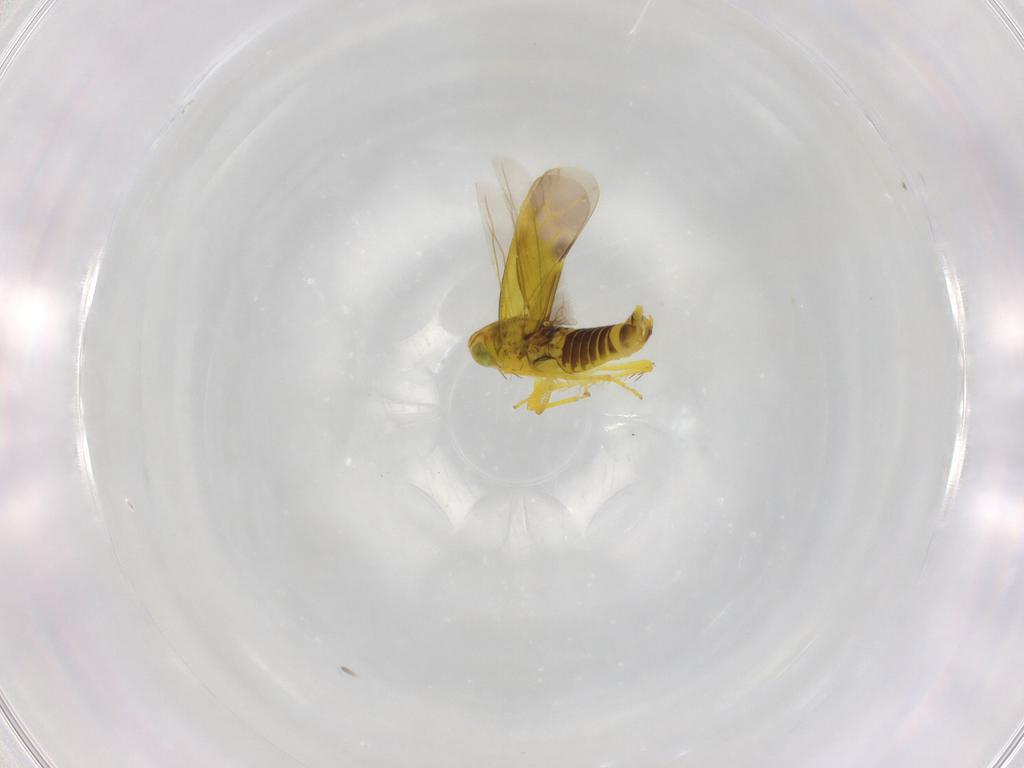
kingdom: Animalia
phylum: Arthropoda
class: Insecta
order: Hemiptera
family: Cicadellidae
